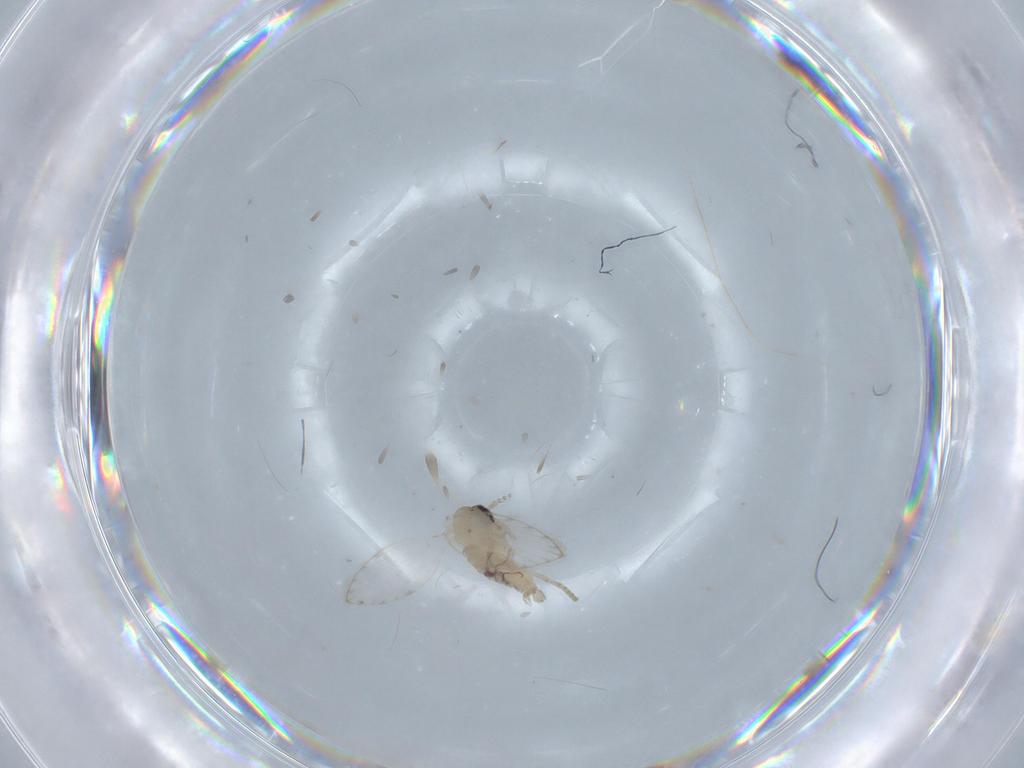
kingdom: Animalia
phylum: Arthropoda
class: Insecta
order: Diptera
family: Psychodidae
